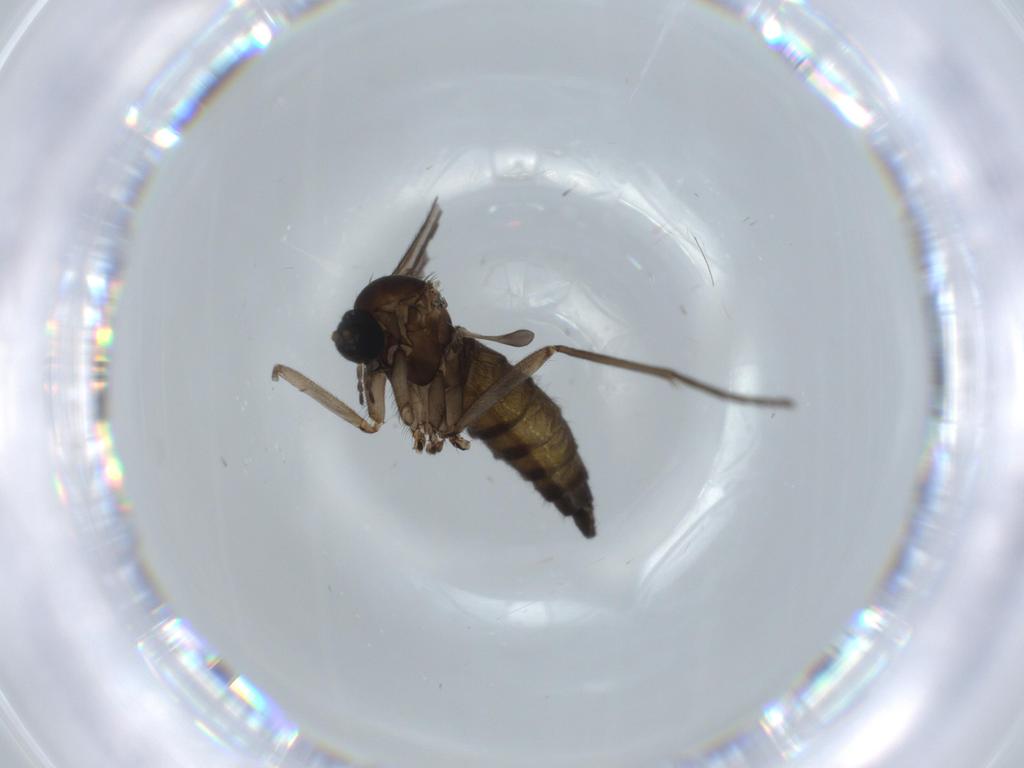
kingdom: Animalia
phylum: Arthropoda
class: Insecta
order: Diptera
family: Sciaridae
